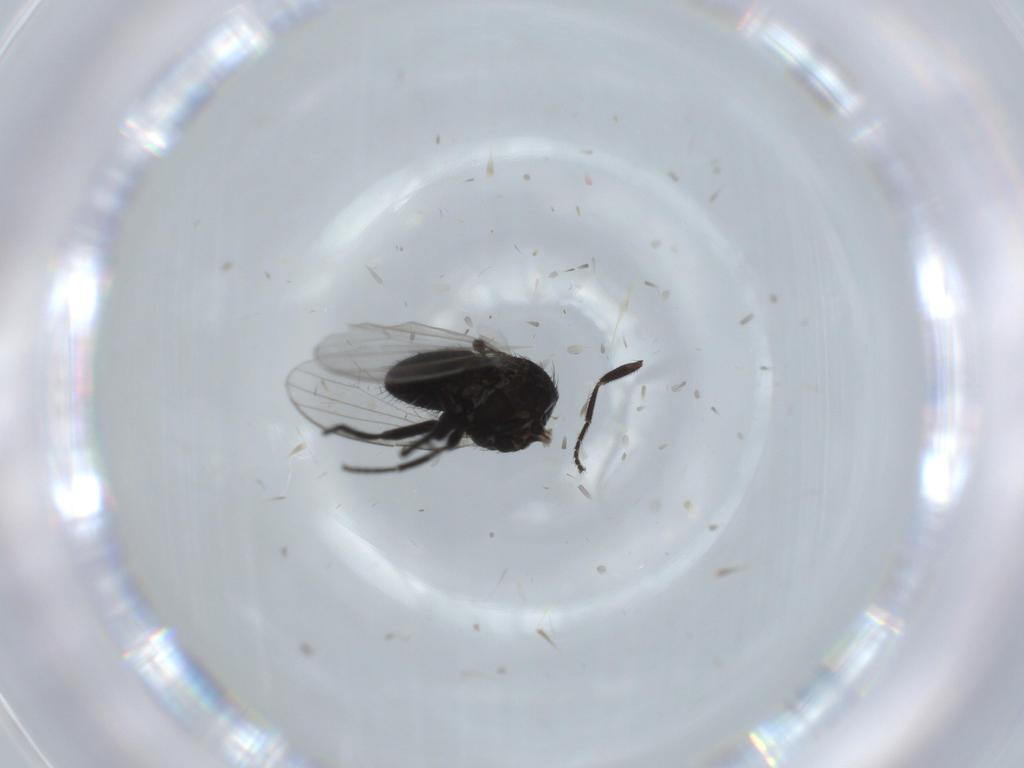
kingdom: Animalia
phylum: Arthropoda
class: Insecta
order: Diptera
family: Milichiidae
